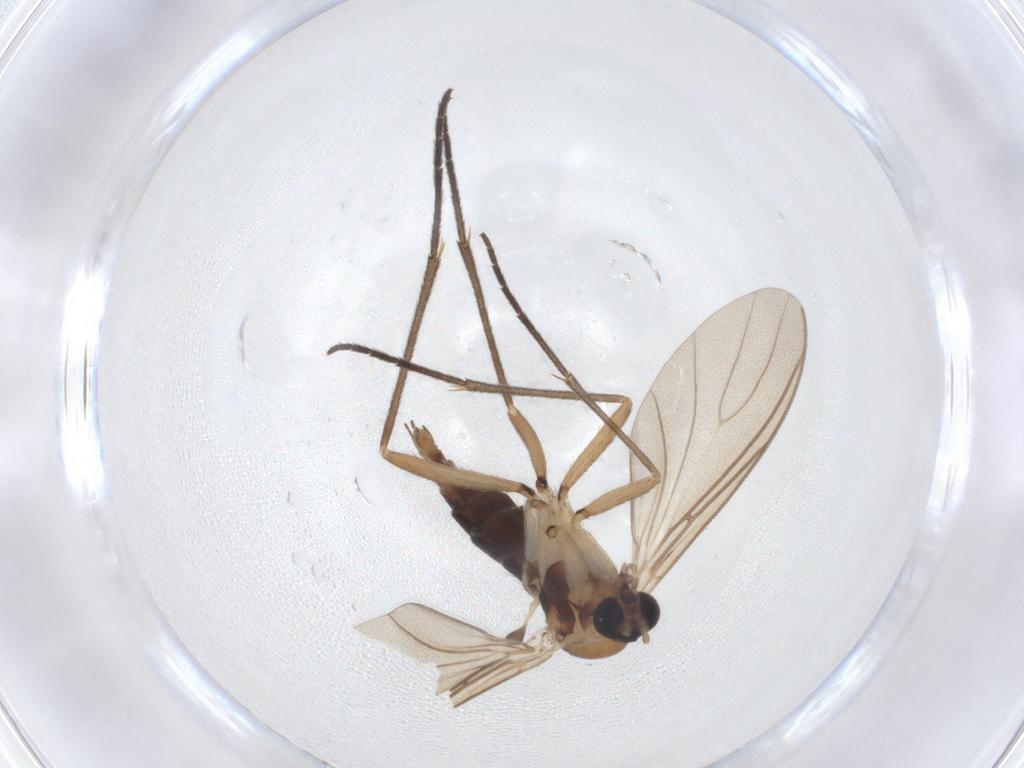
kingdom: Animalia
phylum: Arthropoda
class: Insecta
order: Diptera
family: Sciaridae
